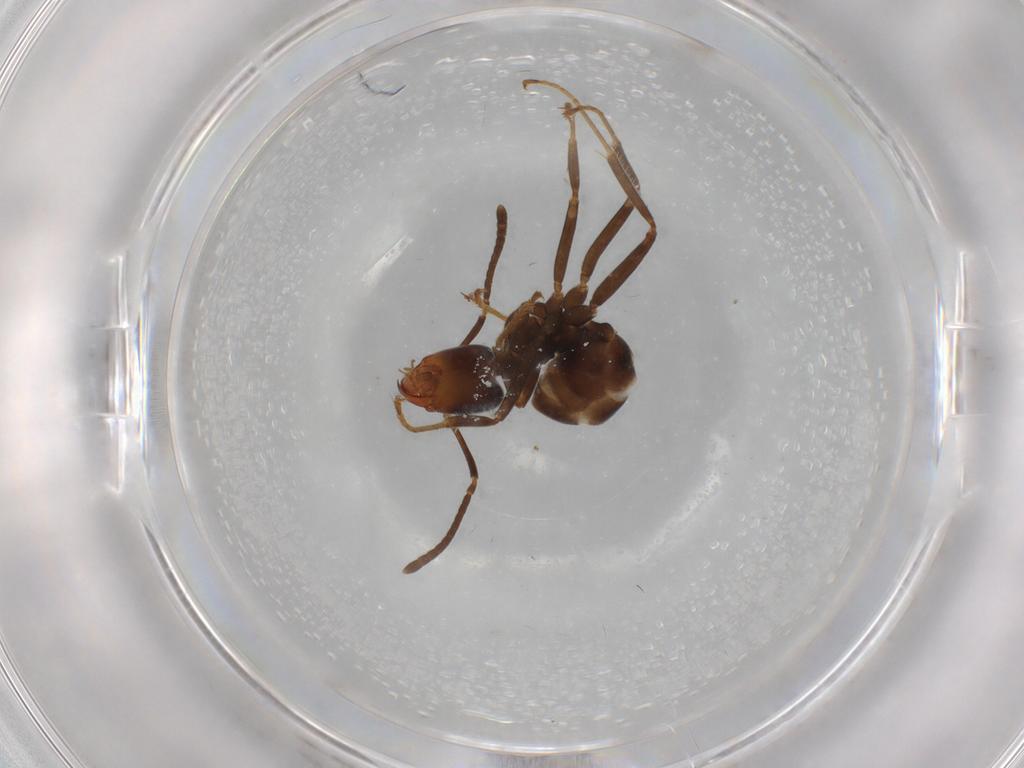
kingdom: Animalia
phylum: Arthropoda
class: Insecta
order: Hymenoptera
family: Formicidae
